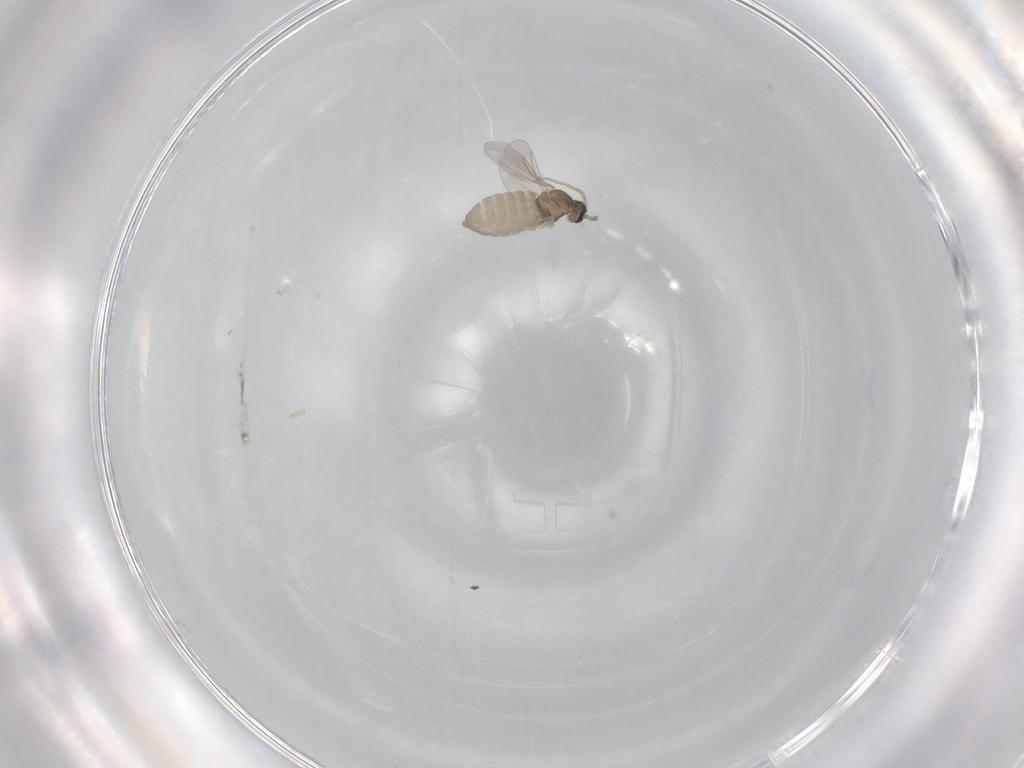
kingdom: Animalia
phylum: Arthropoda
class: Insecta
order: Diptera
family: Cecidomyiidae
